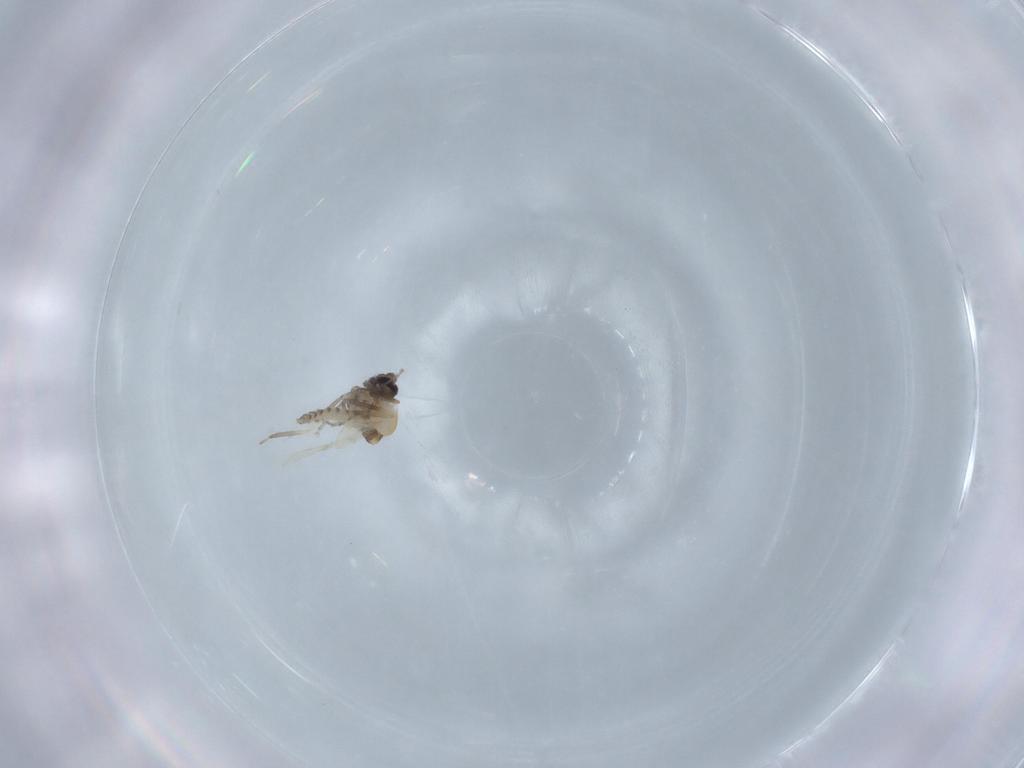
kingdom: Animalia
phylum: Arthropoda
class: Insecta
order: Diptera
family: Ceratopogonidae
